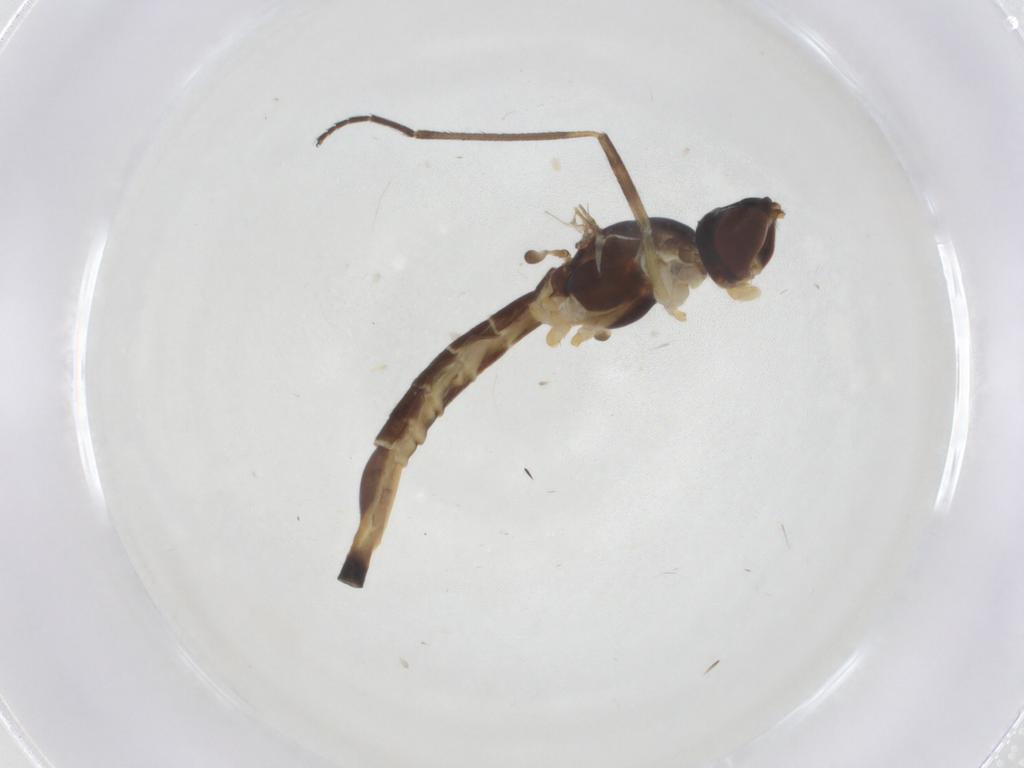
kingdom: Animalia
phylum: Arthropoda
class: Insecta
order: Diptera
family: Micropezidae
